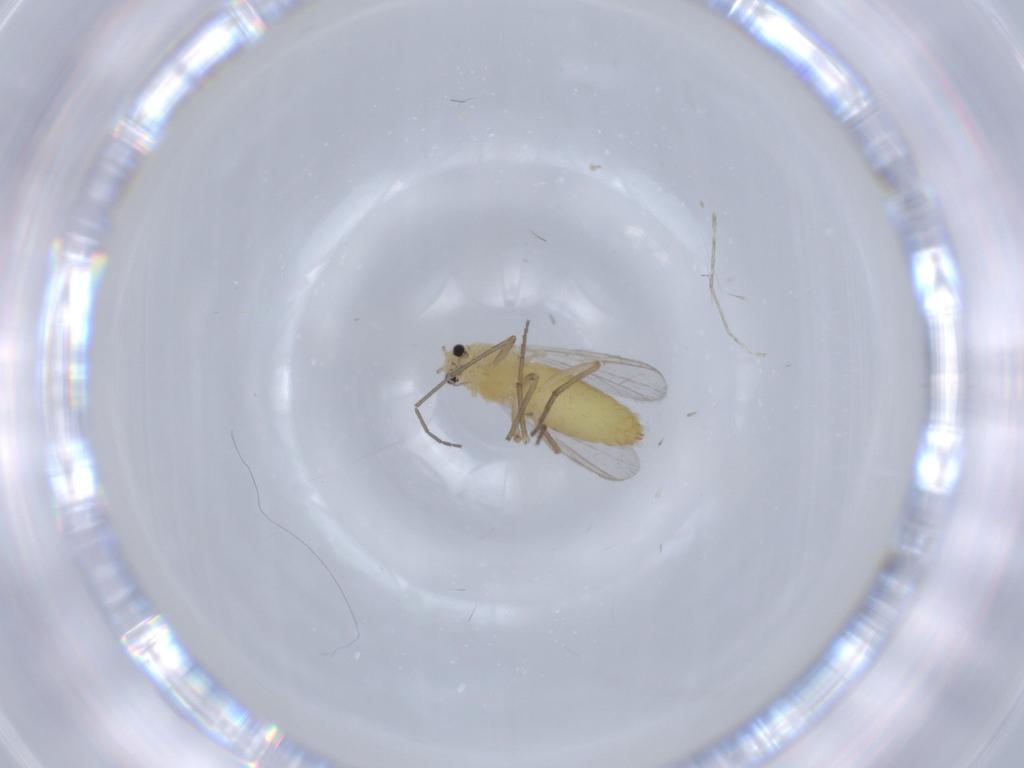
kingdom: Animalia
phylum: Arthropoda
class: Insecta
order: Diptera
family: Chironomidae
